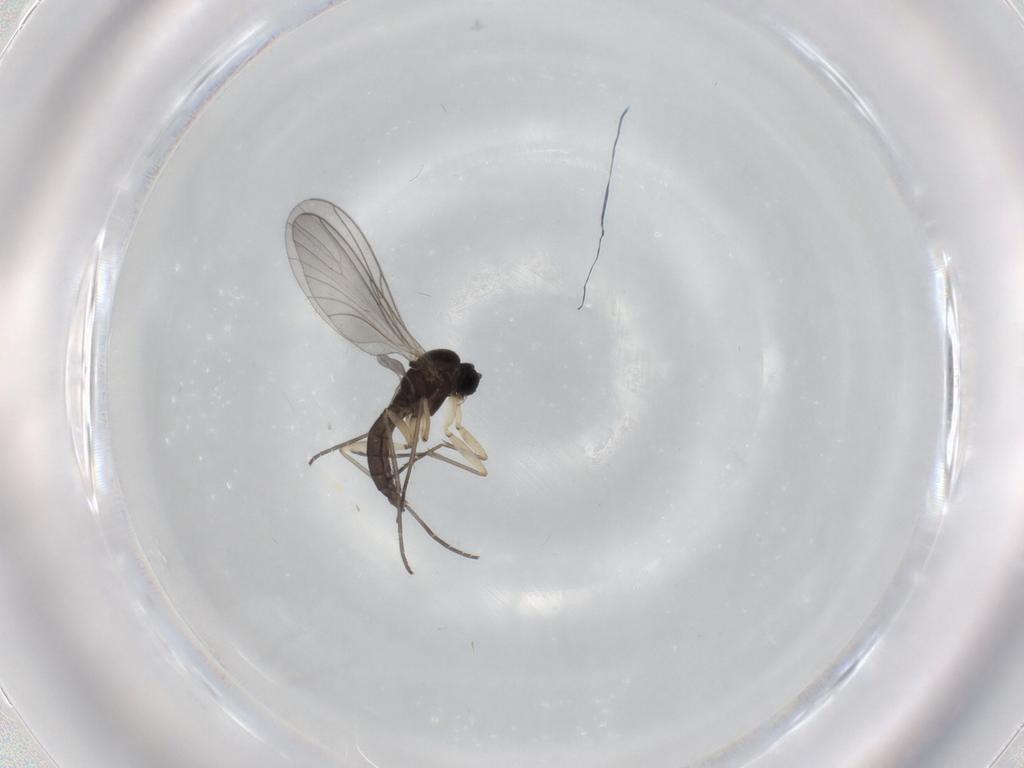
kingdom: Animalia
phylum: Arthropoda
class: Insecta
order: Diptera
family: Sciaridae
